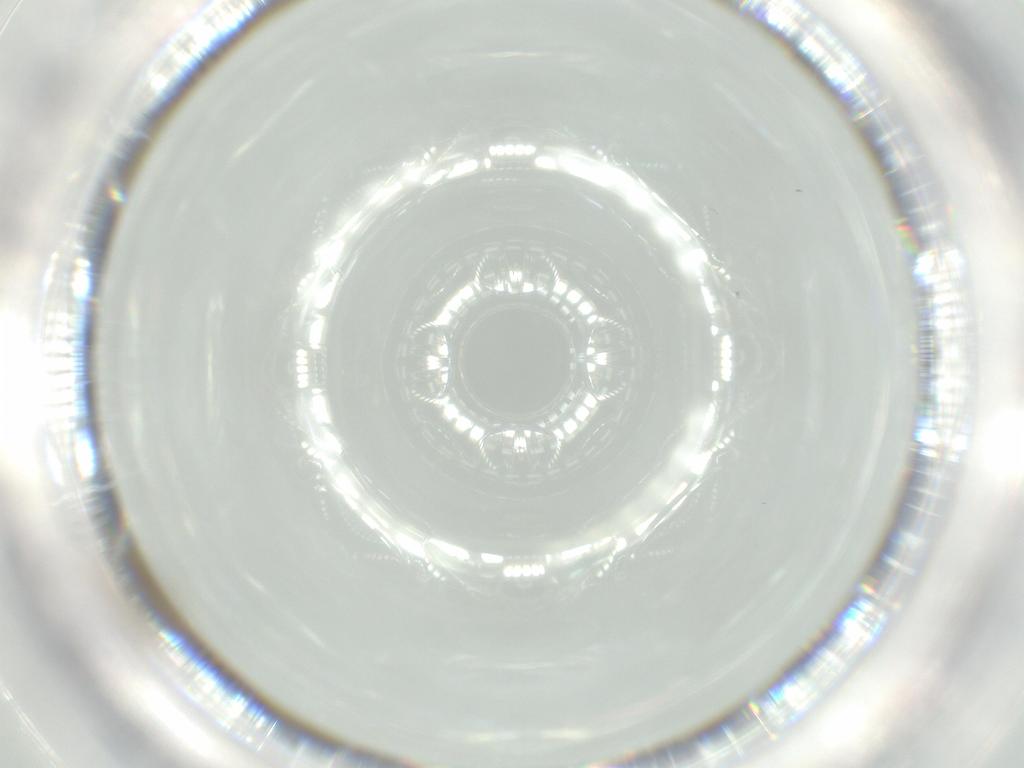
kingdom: Animalia
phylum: Arthropoda
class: Insecta
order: Diptera
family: Chironomidae
